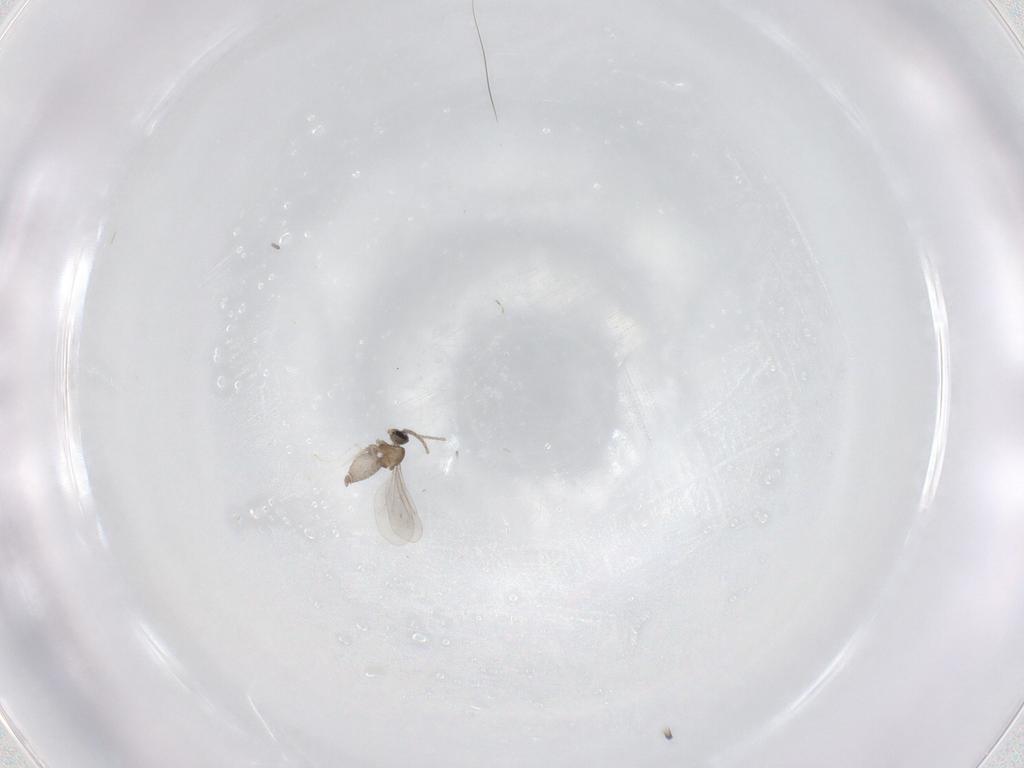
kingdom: Animalia
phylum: Arthropoda
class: Insecta
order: Diptera
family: Cecidomyiidae
